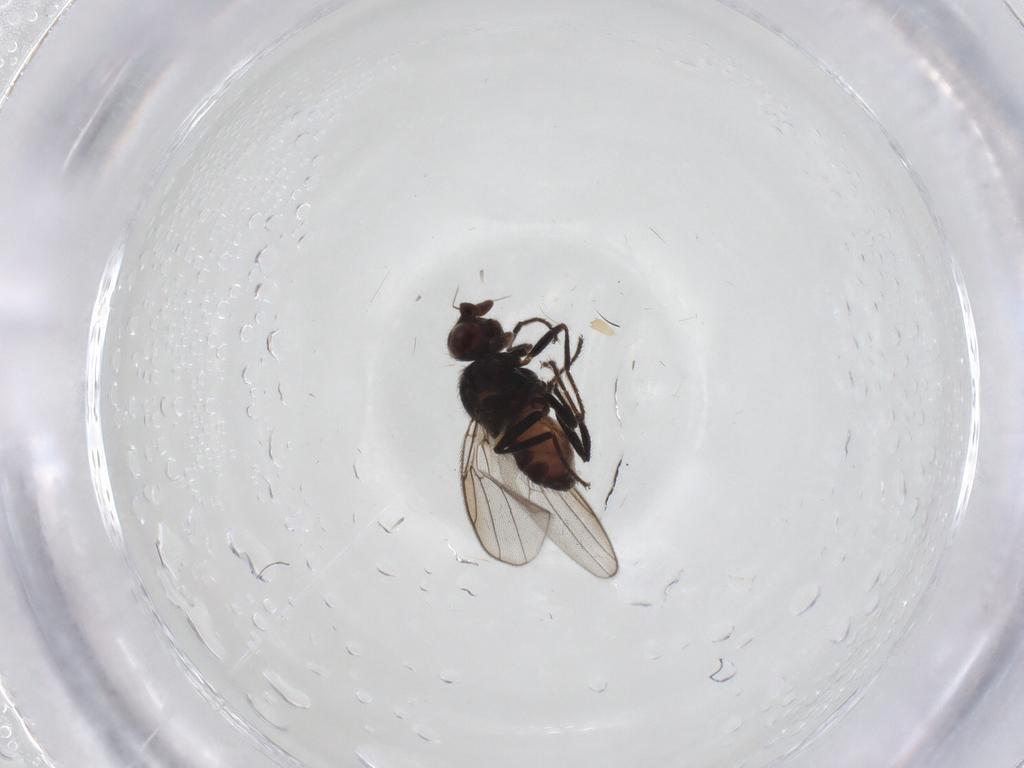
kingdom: Animalia
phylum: Arthropoda
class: Insecta
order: Diptera
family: Chloropidae
